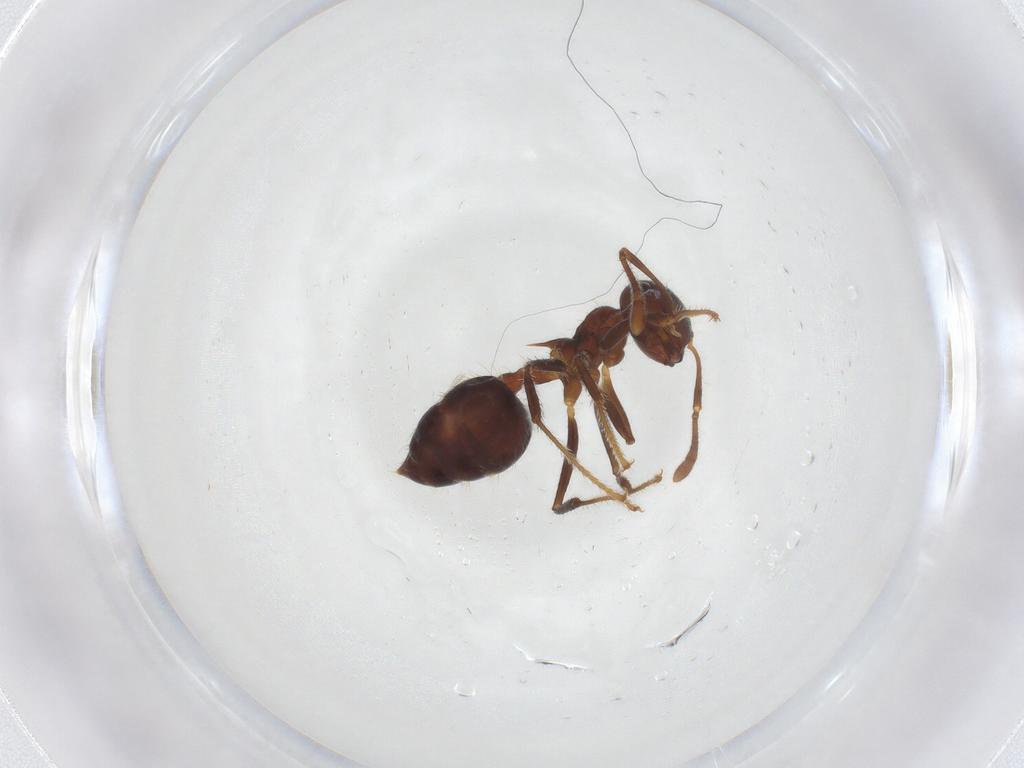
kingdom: Animalia
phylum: Arthropoda
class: Insecta
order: Hymenoptera
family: Formicidae
